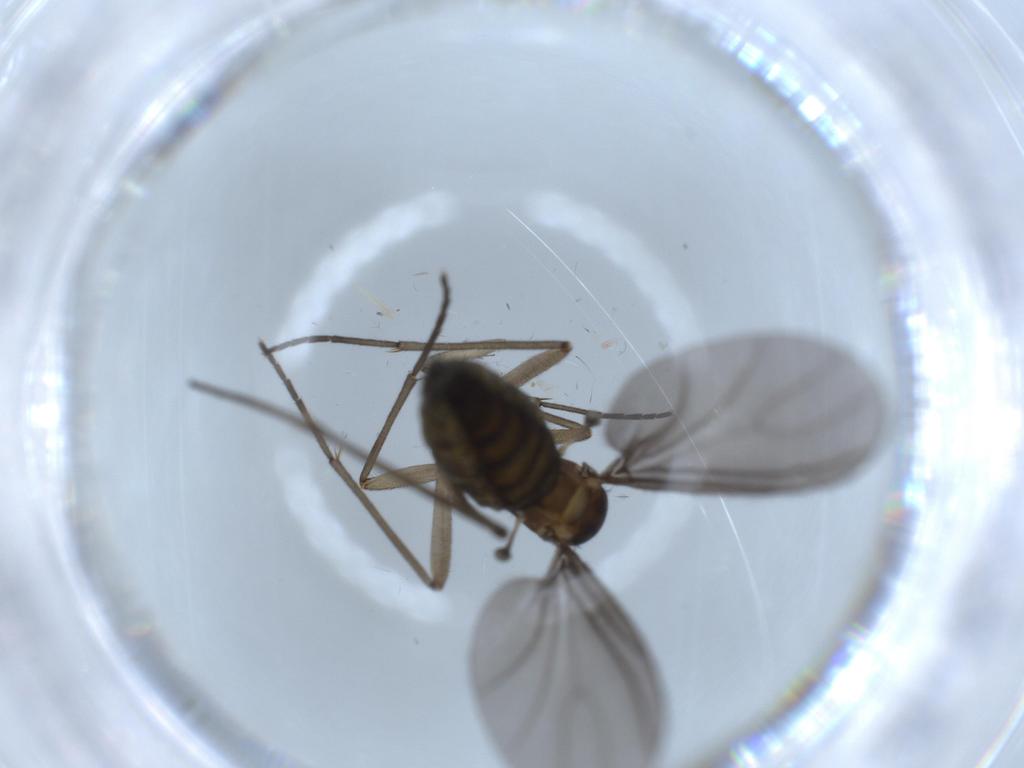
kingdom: Animalia
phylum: Arthropoda
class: Insecta
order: Diptera
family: Sciaridae
